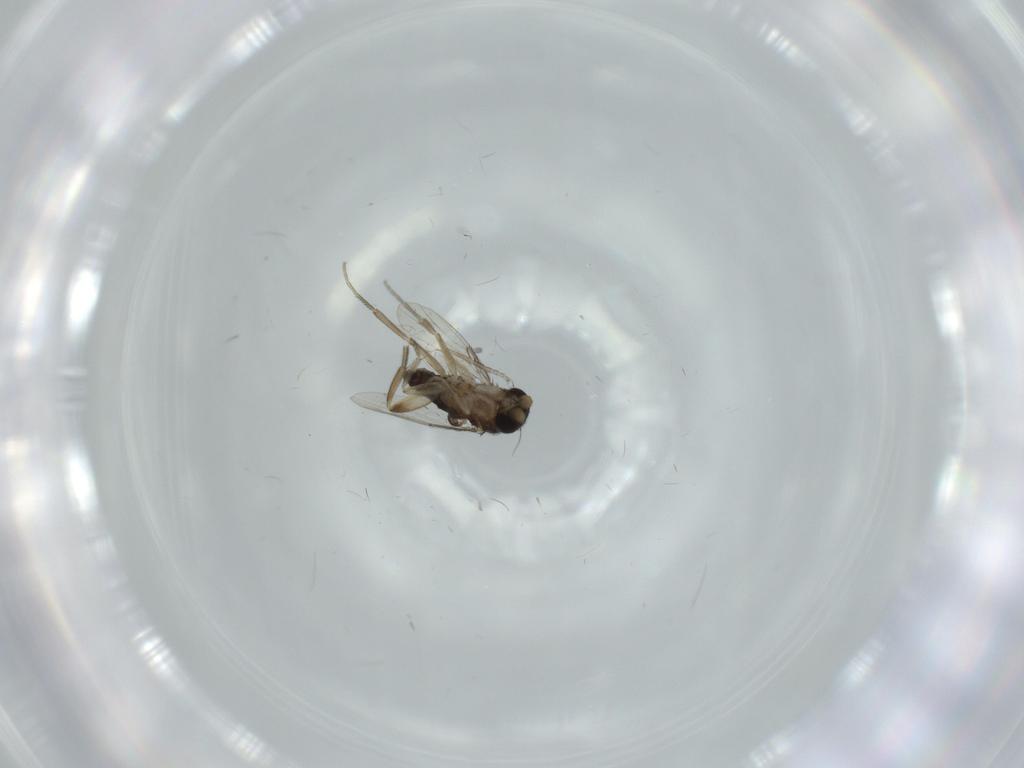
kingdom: Animalia
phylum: Arthropoda
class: Insecta
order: Diptera
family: Phoridae
